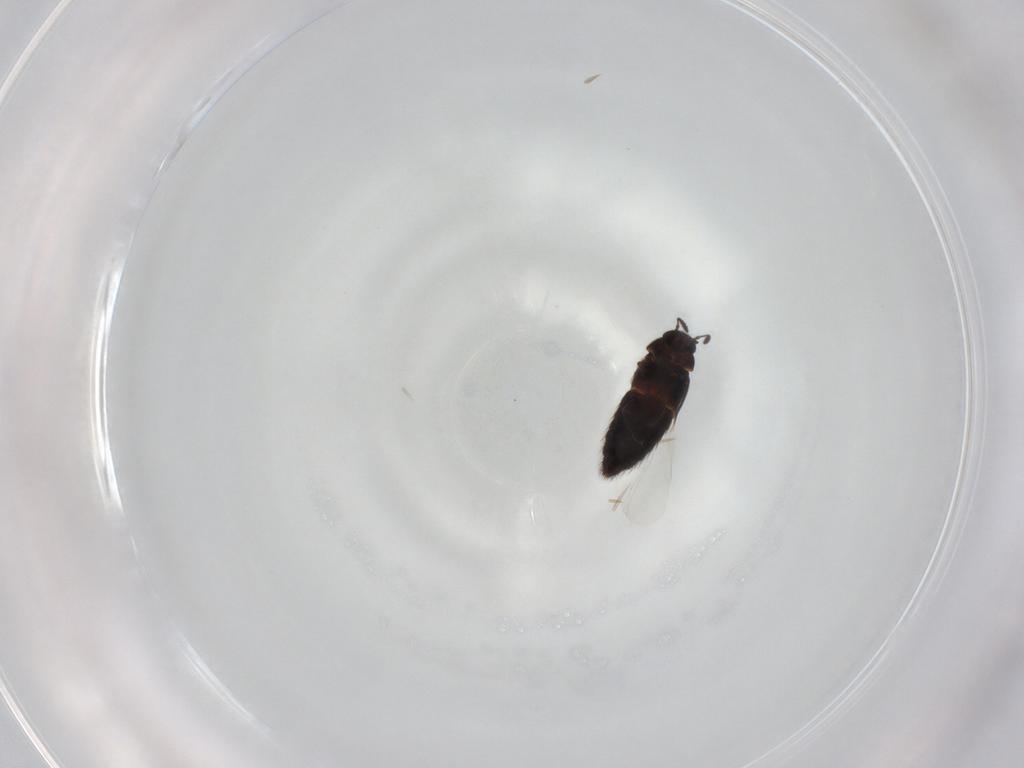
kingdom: Animalia
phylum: Arthropoda
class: Insecta
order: Coleoptera
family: Staphylinidae
